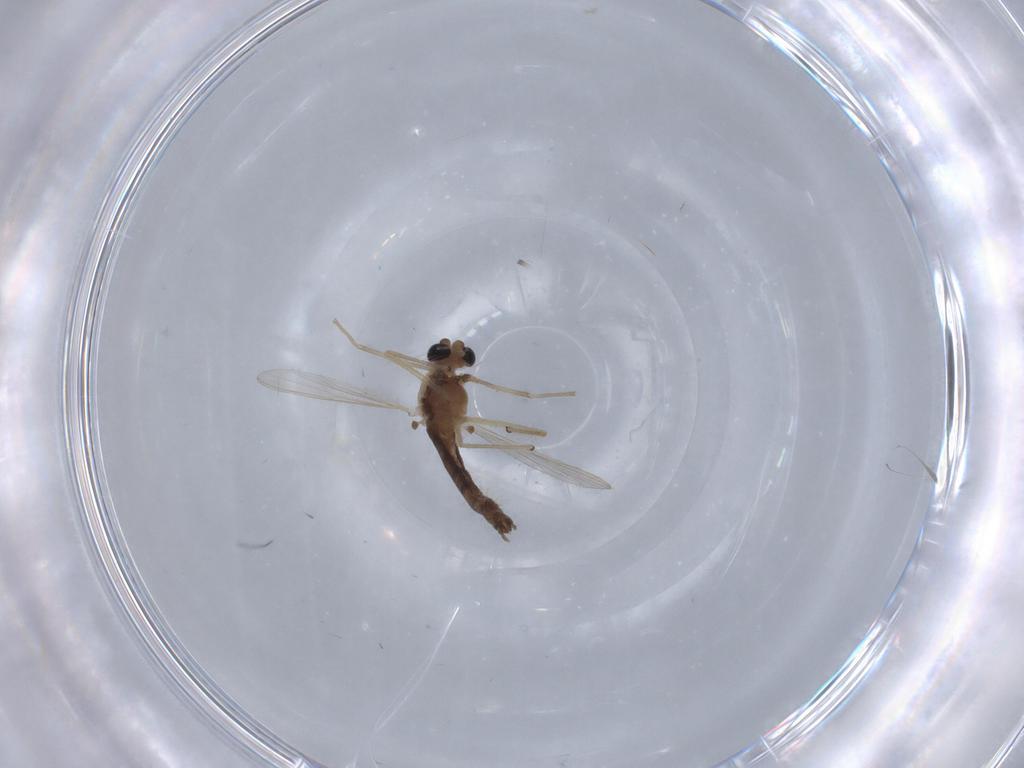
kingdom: Animalia
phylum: Arthropoda
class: Insecta
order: Diptera
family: Chironomidae
